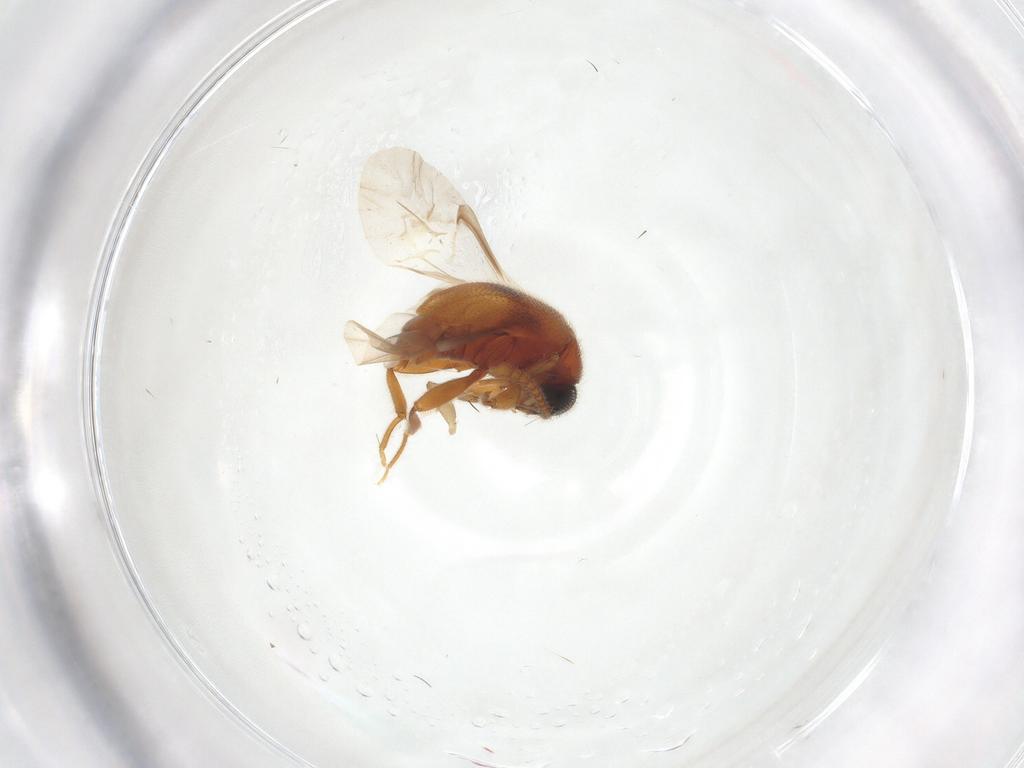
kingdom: Animalia
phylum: Arthropoda
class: Insecta
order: Coleoptera
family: Aderidae
